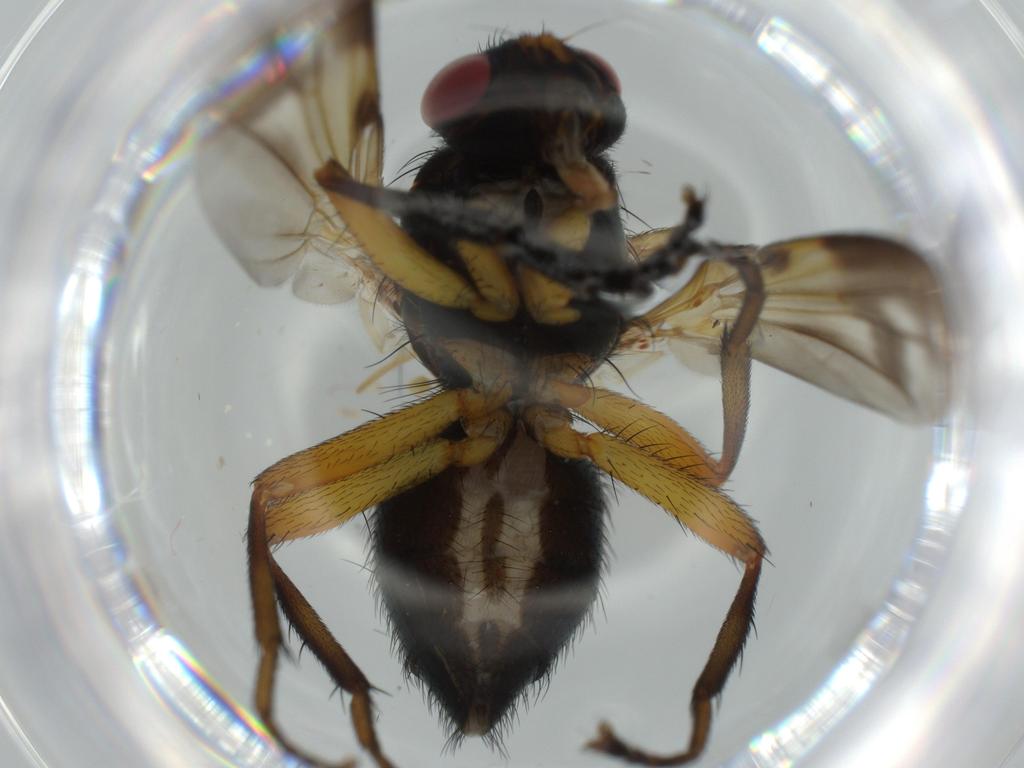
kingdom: Animalia
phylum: Arthropoda
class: Insecta
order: Diptera
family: Calliphoridae
